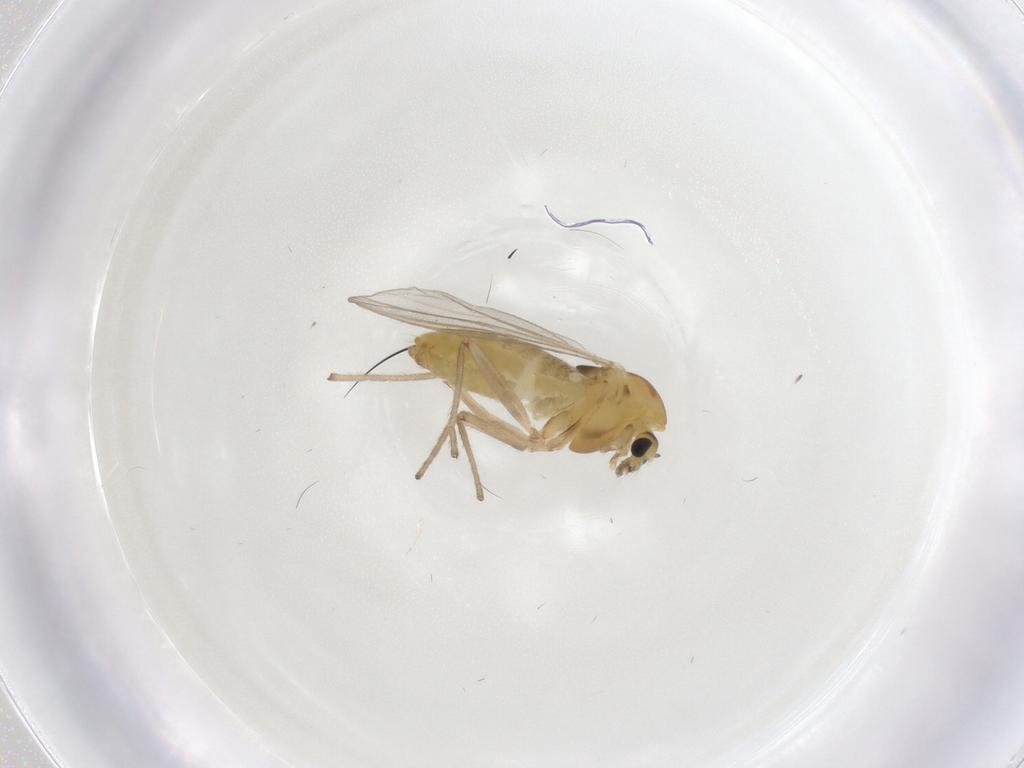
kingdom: Animalia
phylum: Arthropoda
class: Insecta
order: Diptera
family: Chironomidae
